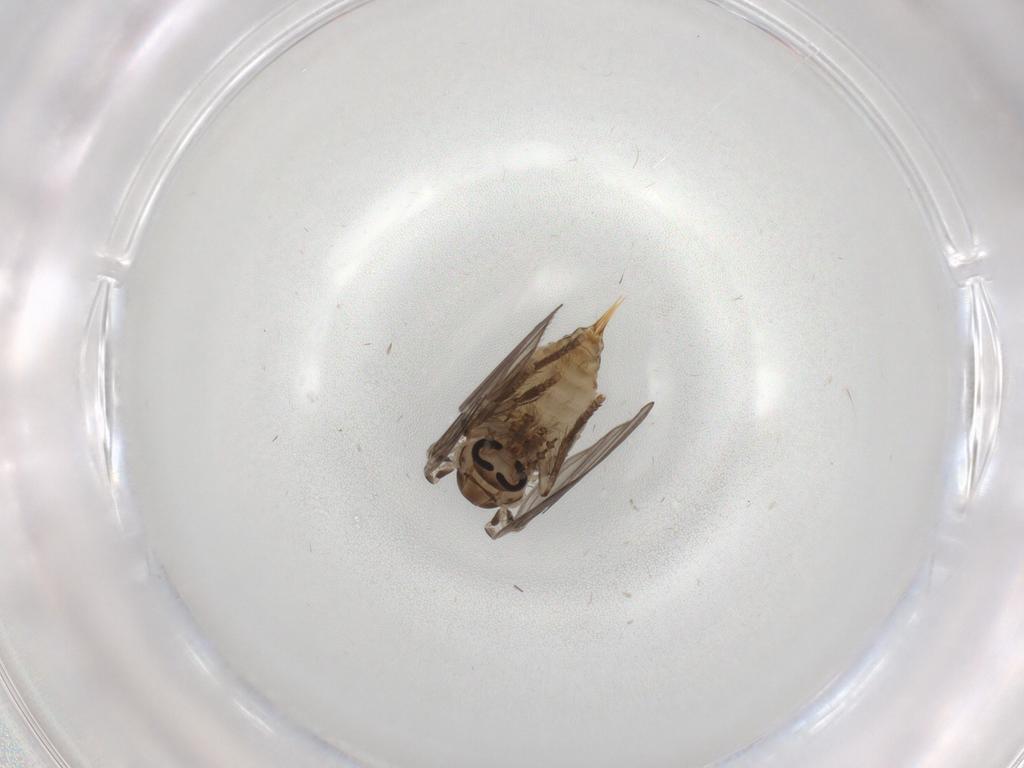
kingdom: Animalia
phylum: Arthropoda
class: Insecta
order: Diptera
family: Psychodidae
